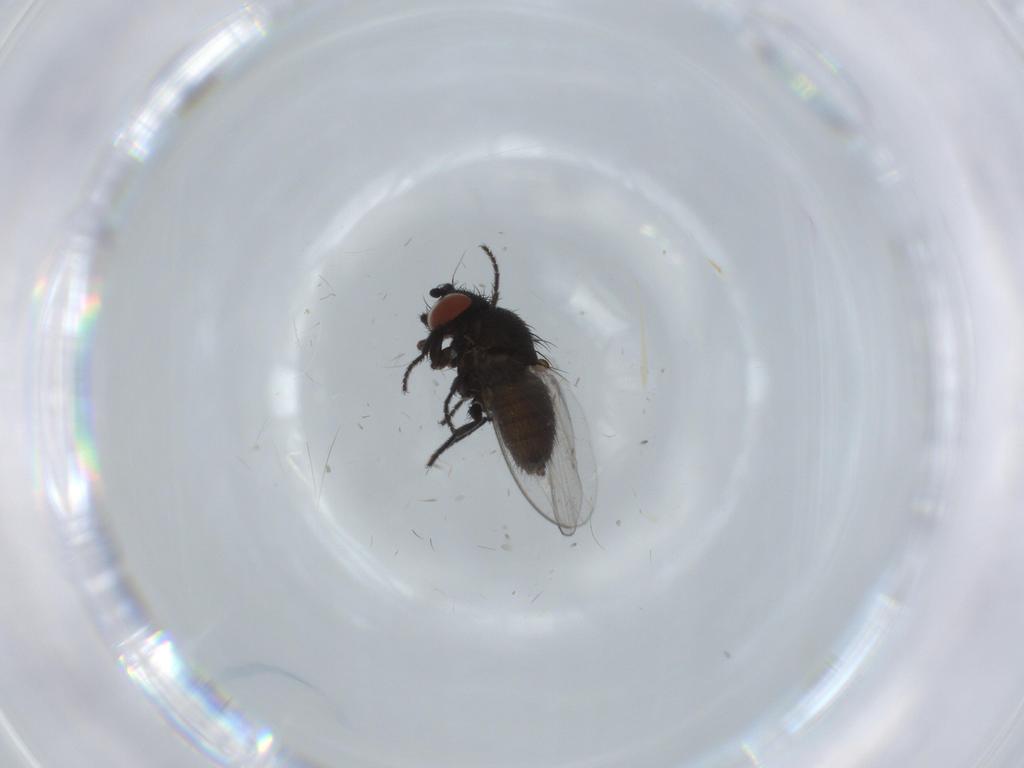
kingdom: Animalia
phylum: Arthropoda
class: Insecta
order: Diptera
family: Milichiidae
